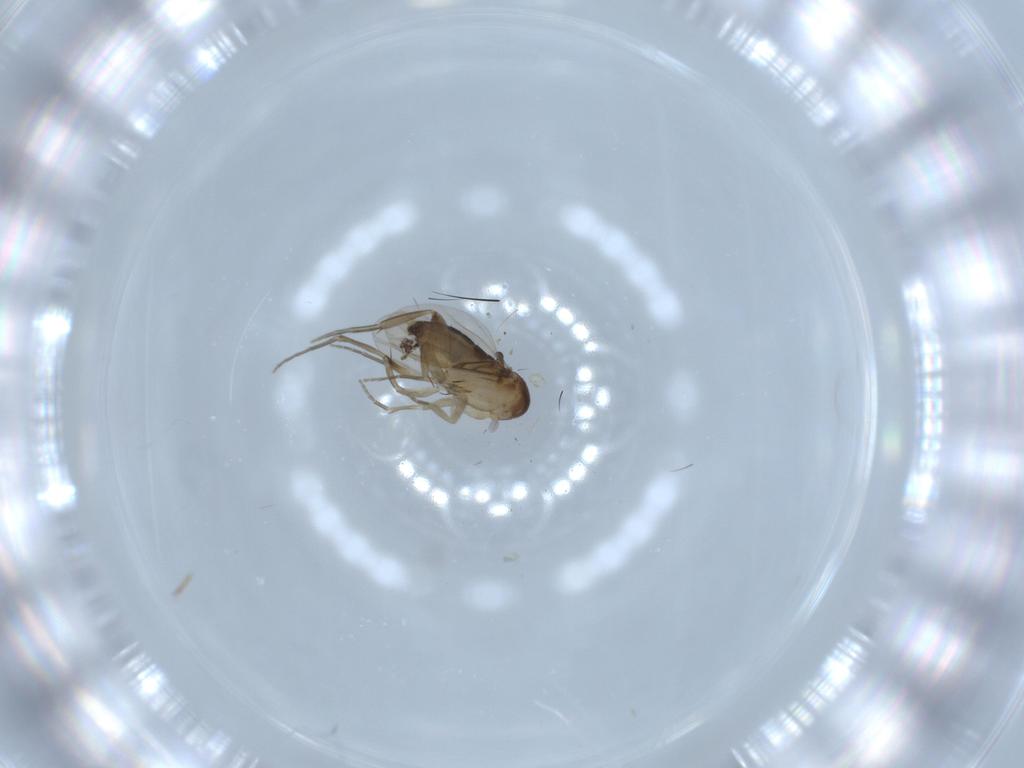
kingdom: Animalia
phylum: Arthropoda
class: Insecta
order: Diptera
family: Phoridae
